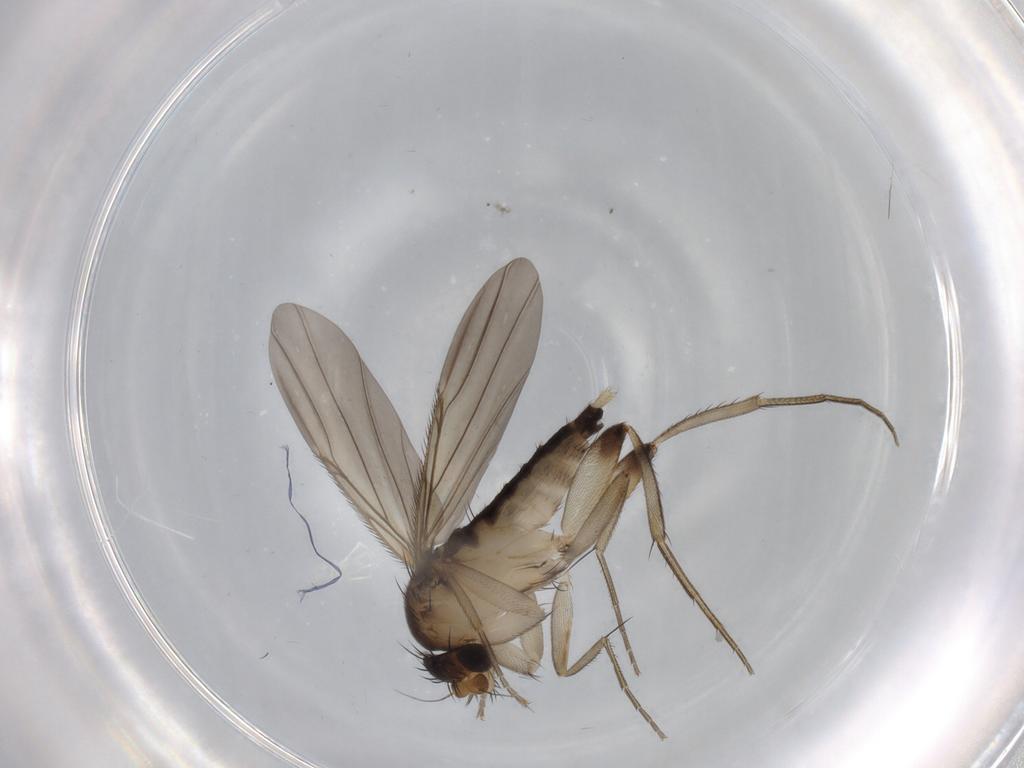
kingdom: Animalia
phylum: Arthropoda
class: Insecta
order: Diptera
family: Phoridae
